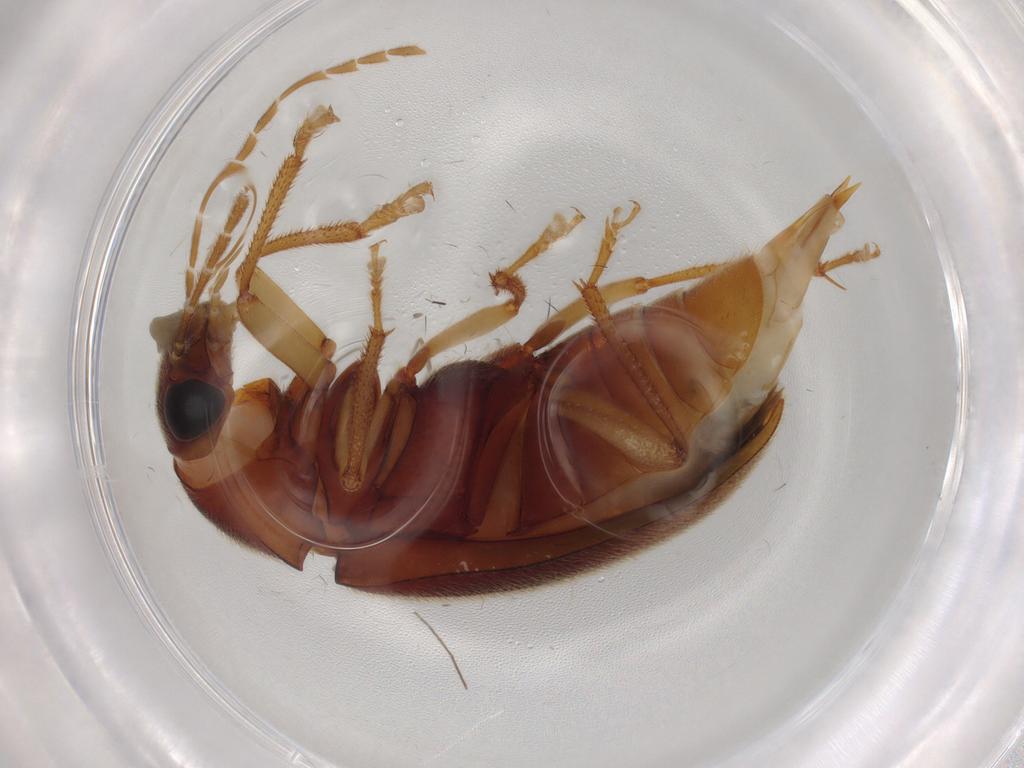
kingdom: Animalia
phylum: Arthropoda
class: Insecta
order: Coleoptera
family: Ptilodactylidae
